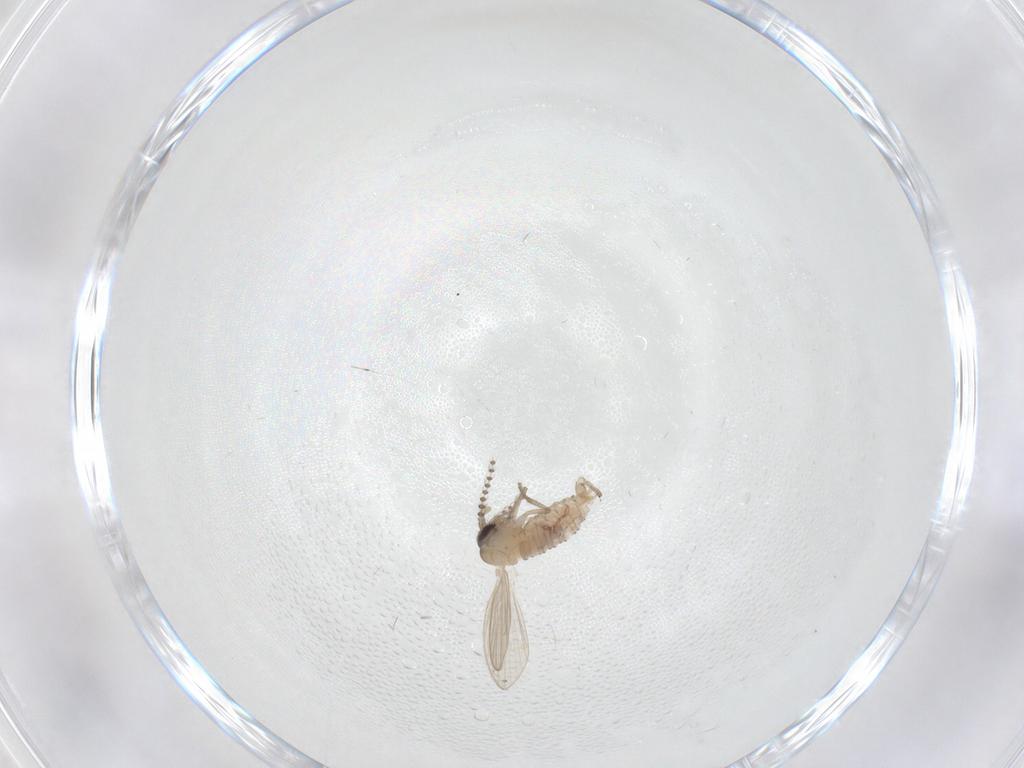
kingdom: Animalia
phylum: Arthropoda
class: Insecta
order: Diptera
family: Psychodidae
